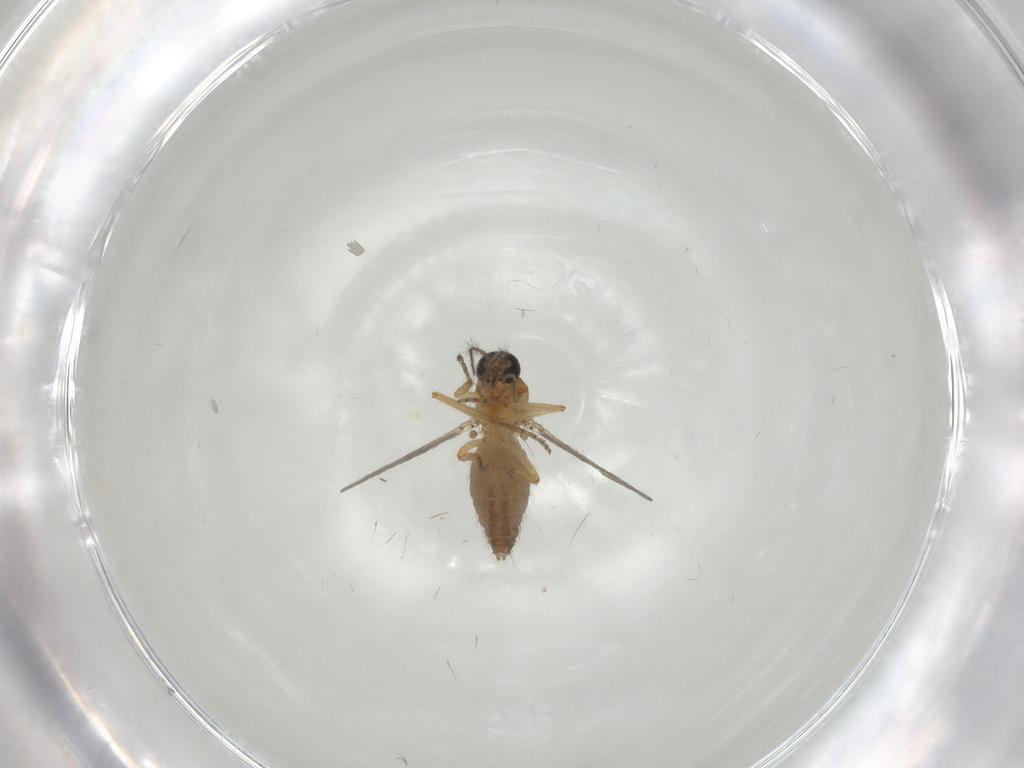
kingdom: Animalia
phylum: Arthropoda
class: Insecta
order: Diptera
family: Ceratopogonidae
